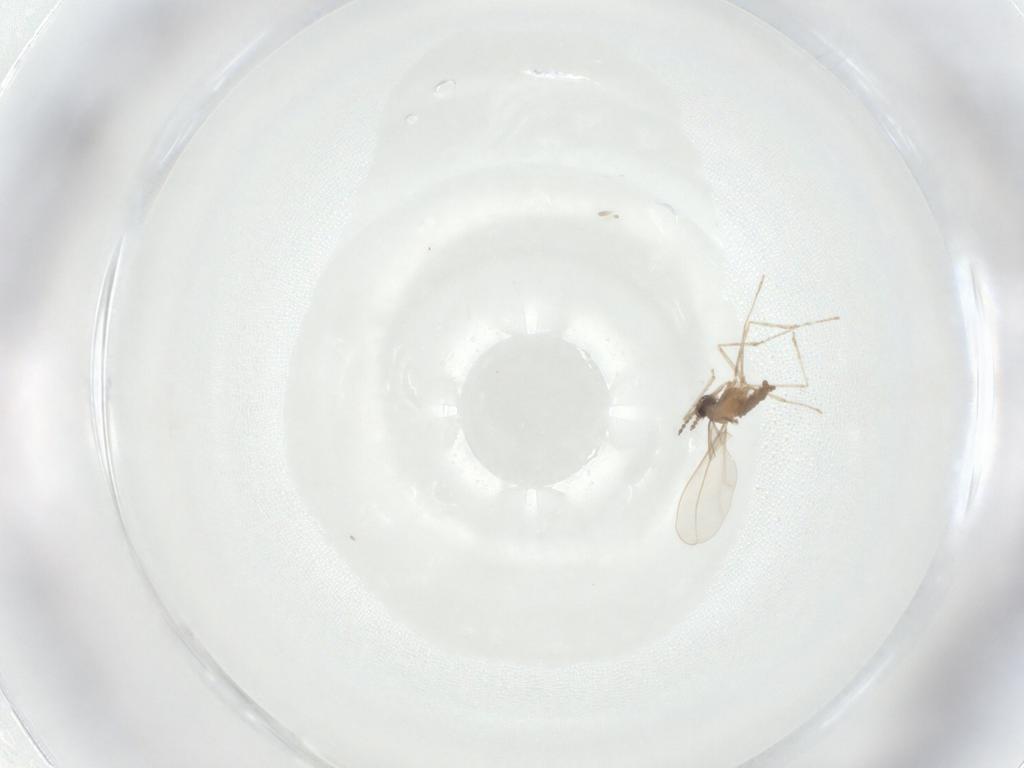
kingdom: Animalia
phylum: Arthropoda
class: Insecta
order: Diptera
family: Cecidomyiidae
